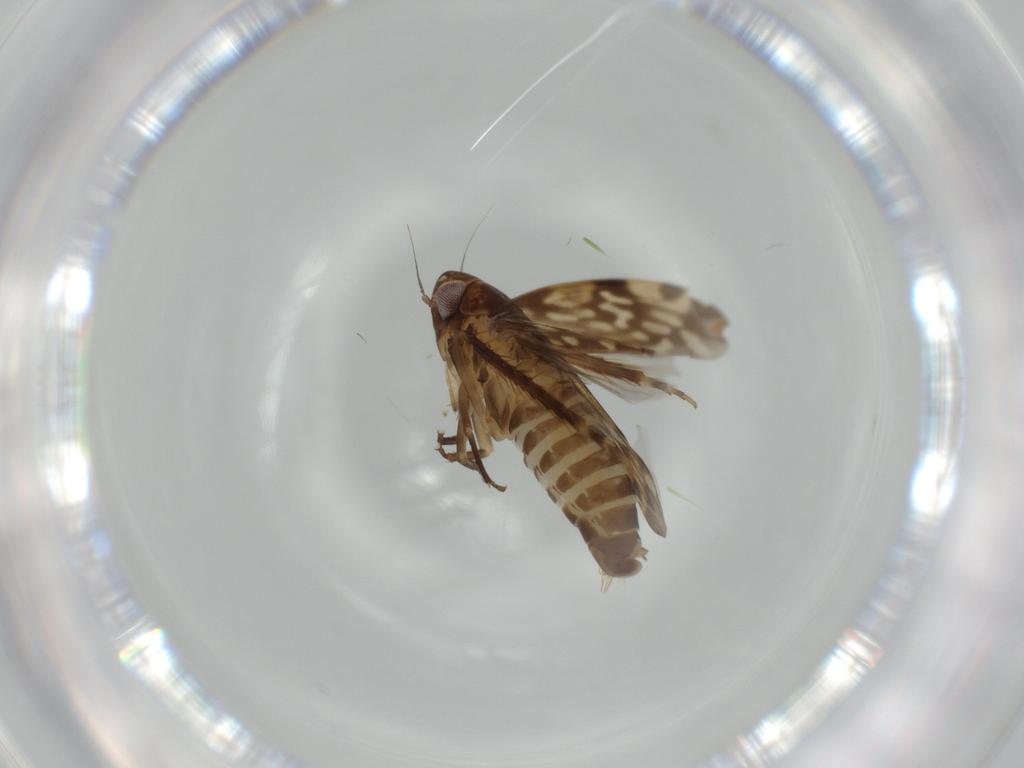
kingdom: Animalia
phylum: Arthropoda
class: Insecta
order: Hemiptera
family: Cicadellidae
